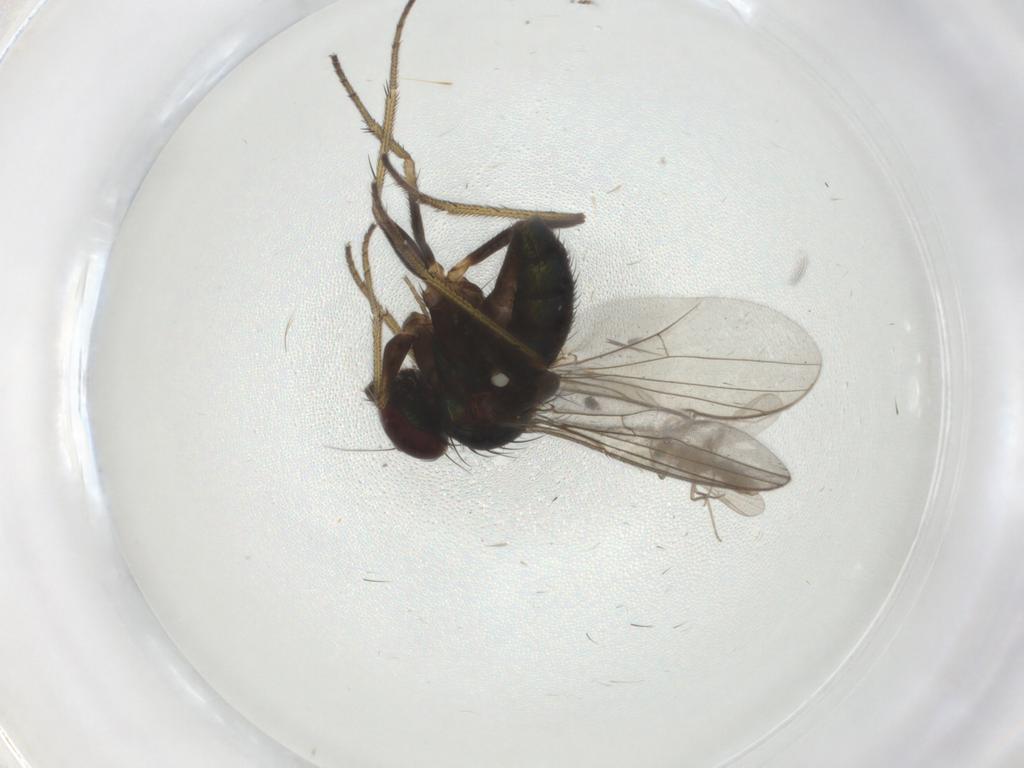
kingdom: Animalia
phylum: Arthropoda
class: Insecta
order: Diptera
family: Chironomidae
